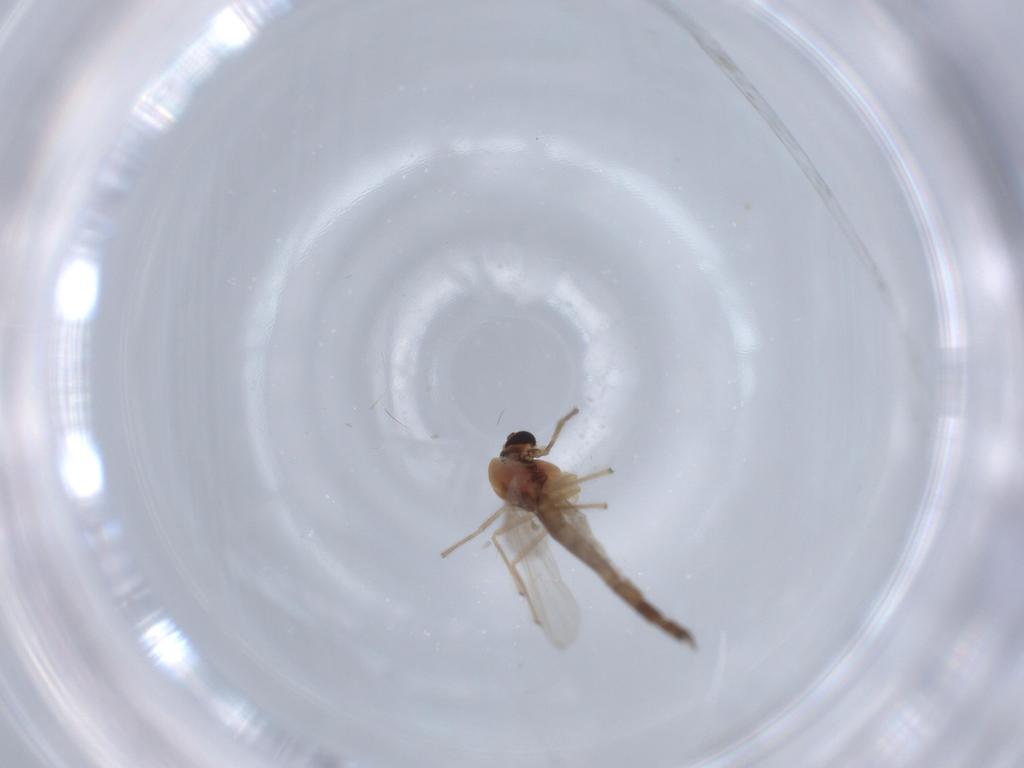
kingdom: Animalia
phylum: Arthropoda
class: Insecta
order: Diptera
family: Chironomidae
